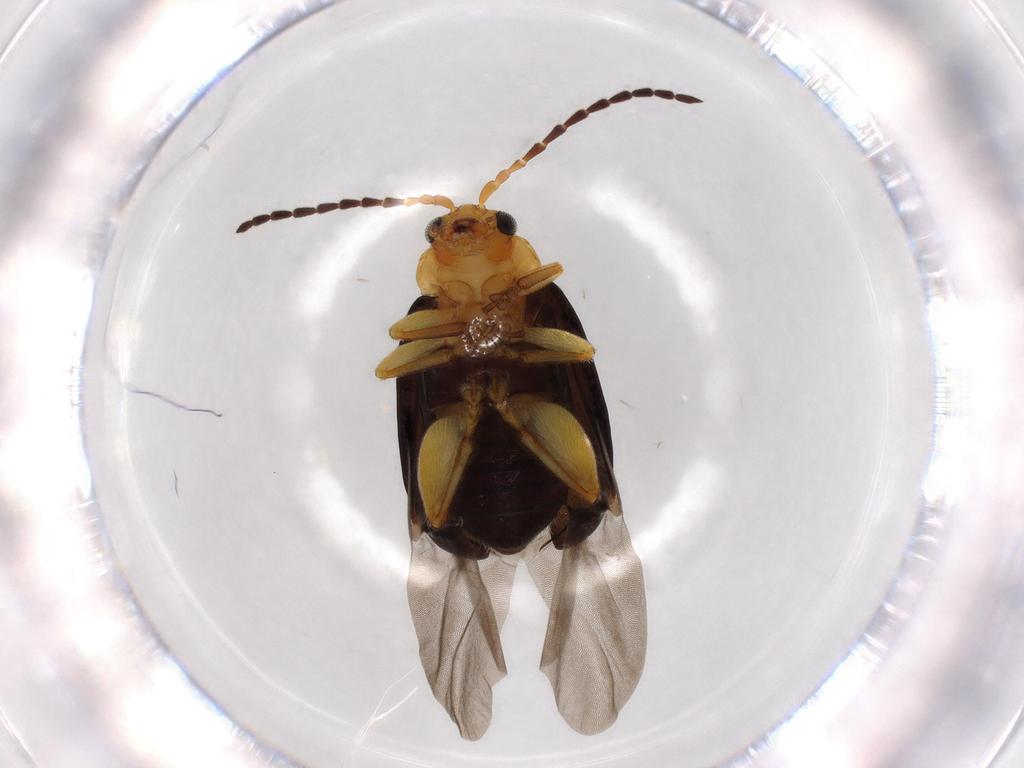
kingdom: Animalia
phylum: Arthropoda
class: Insecta
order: Coleoptera
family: Chrysomelidae
